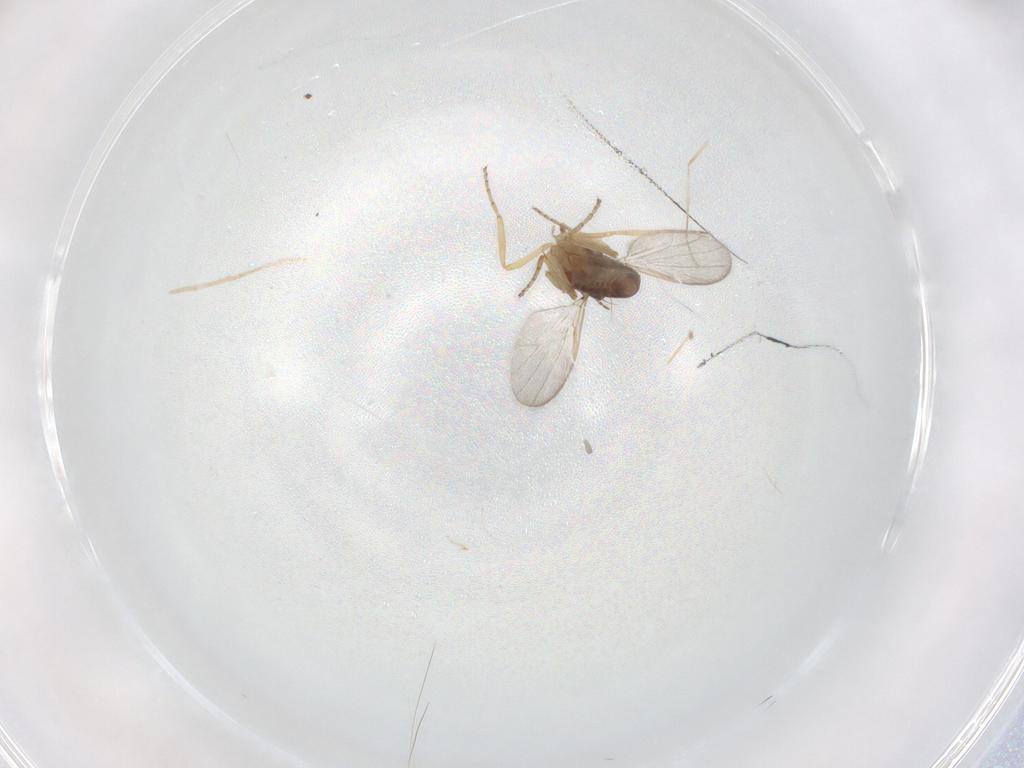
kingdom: Animalia
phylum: Arthropoda
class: Insecta
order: Diptera
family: Cecidomyiidae
